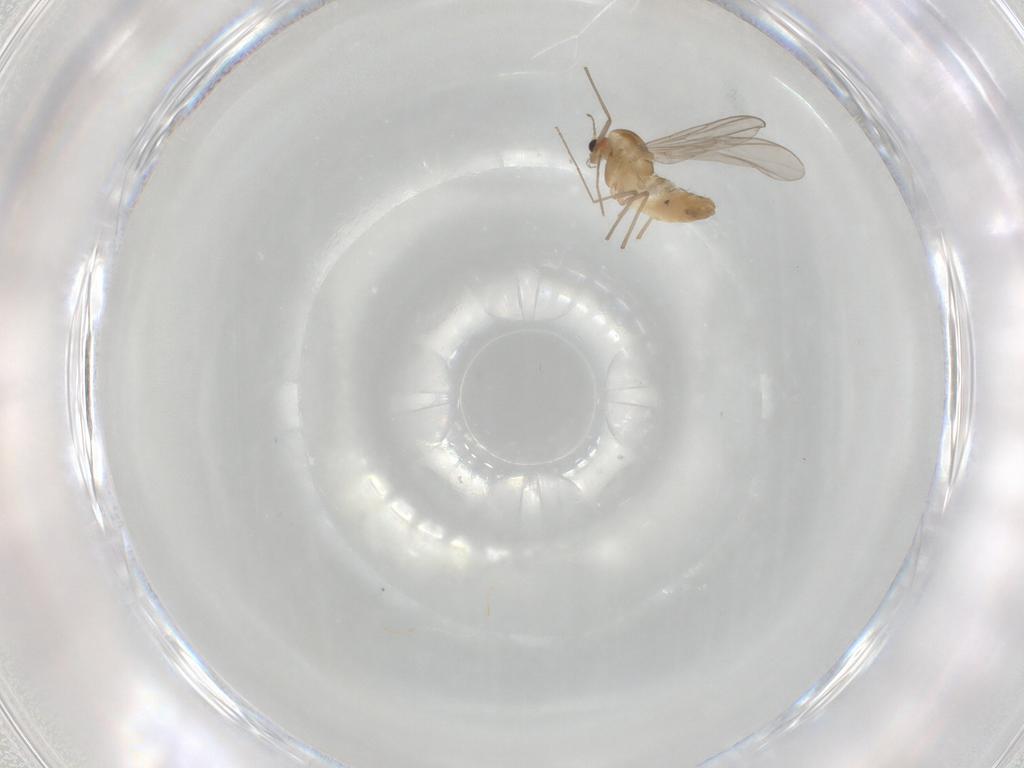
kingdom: Animalia
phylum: Arthropoda
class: Insecta
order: Diptera
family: Chironomidae
